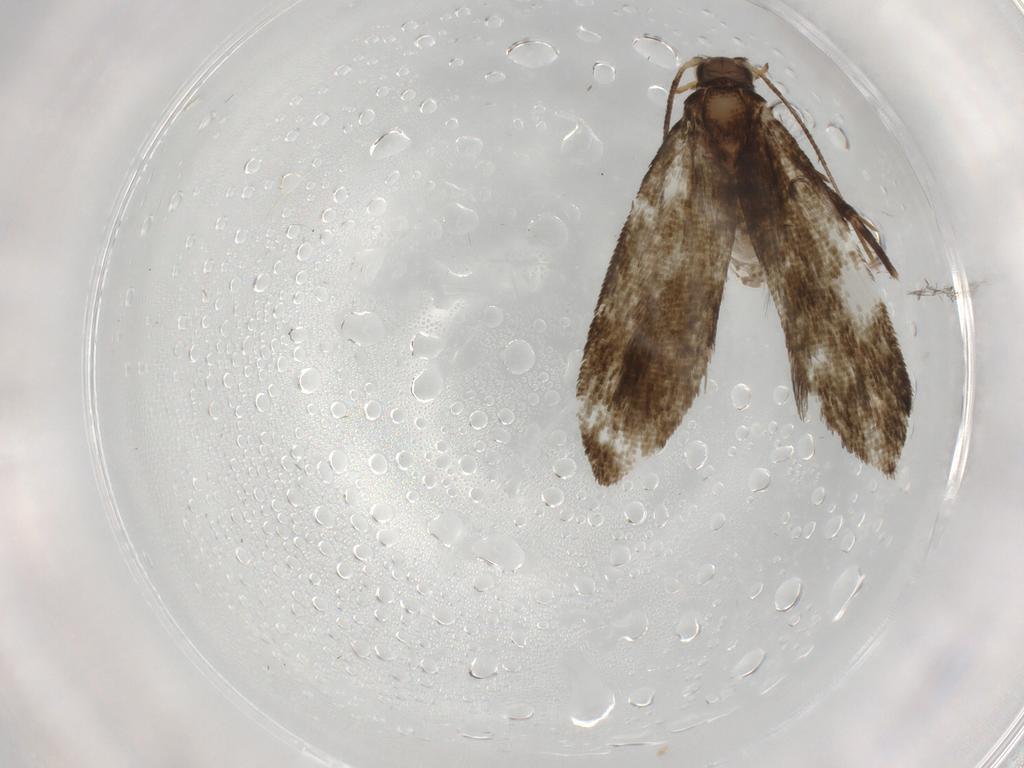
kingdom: Animalia
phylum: Arthropoda
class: Insecta
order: Lepidoptera
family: Crambidae
